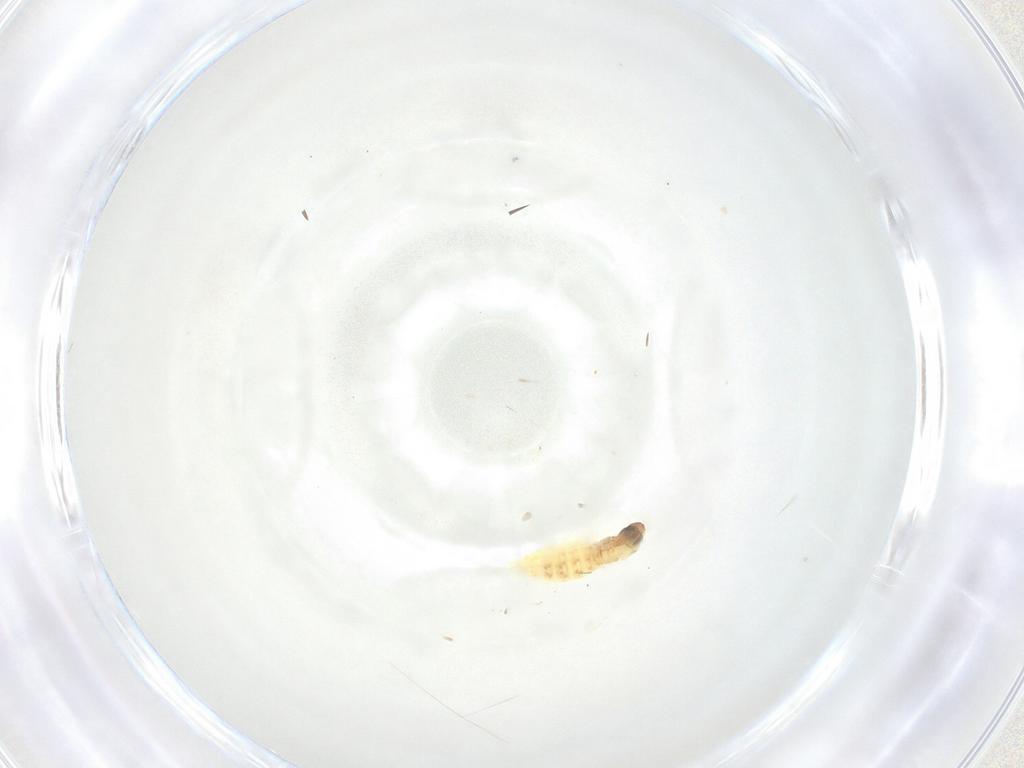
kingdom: Animalia
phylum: Arthropoda
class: Insecta
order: Diptera
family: Cecidomyiidae
